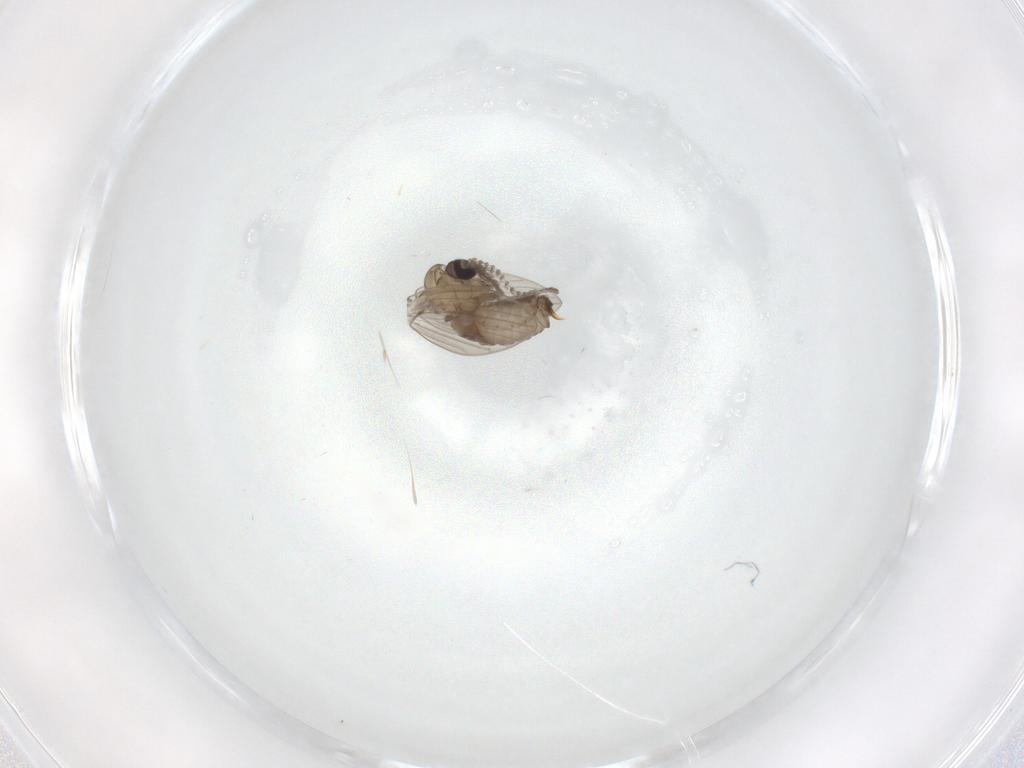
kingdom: Animalia
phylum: Arthropoda
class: Insecta
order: Diptera
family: Psychodidae
